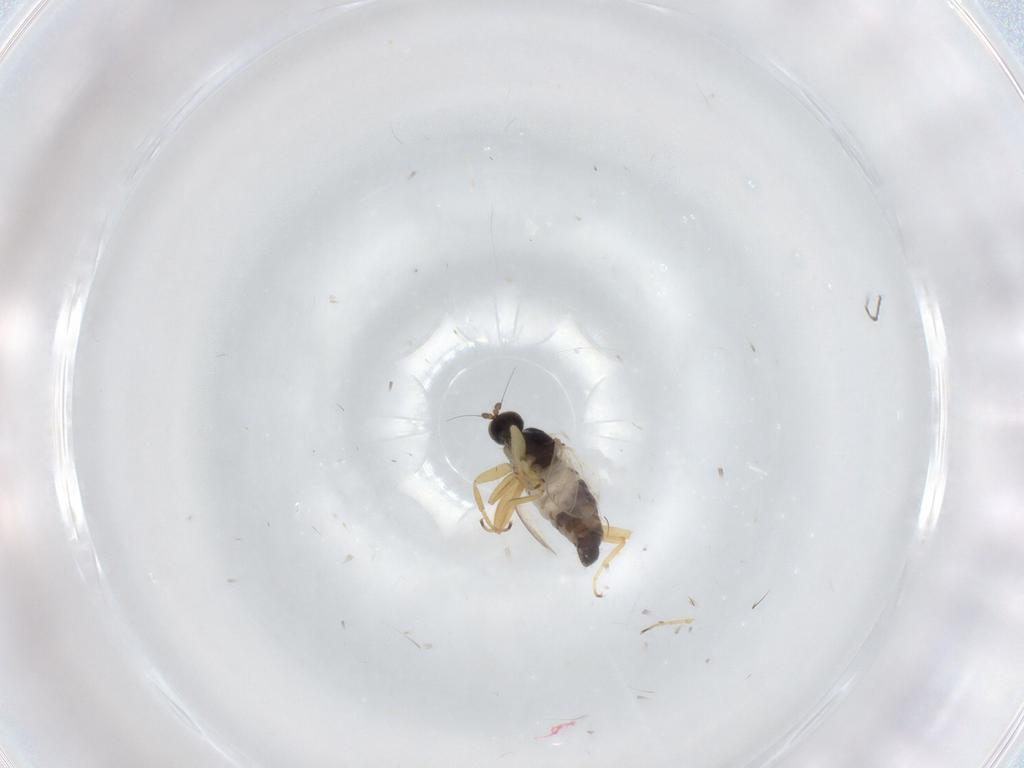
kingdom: Animalia
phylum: Arthropoda
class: Insecta
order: Diptera
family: Hybotidae
